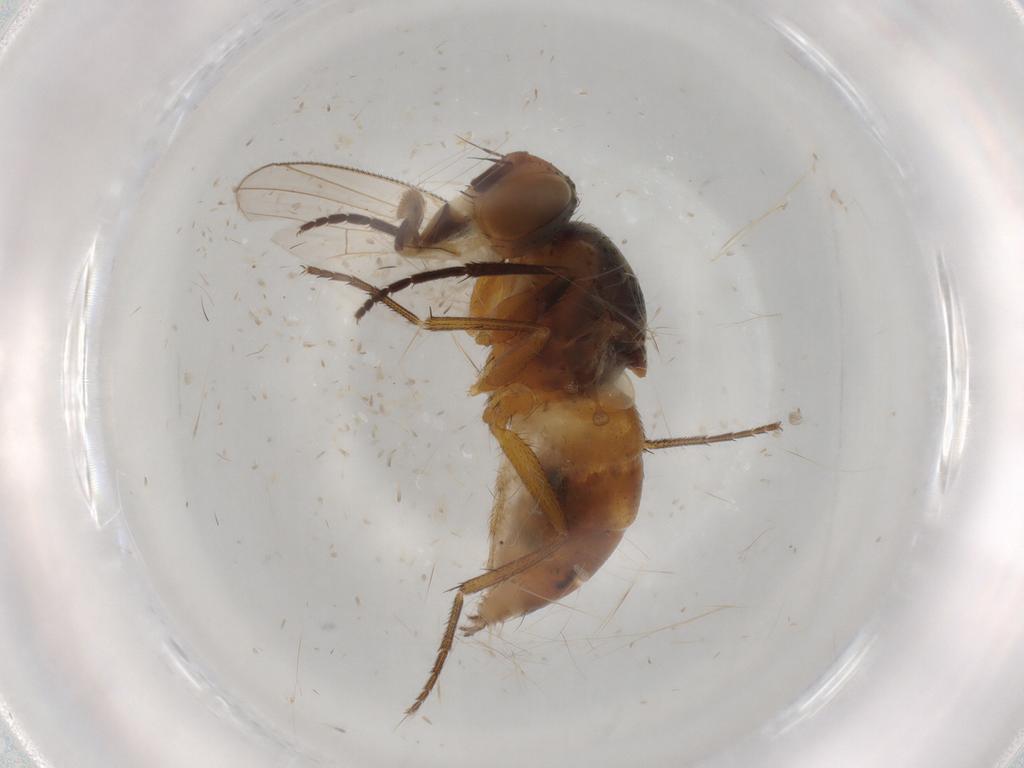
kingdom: Animalia
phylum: Arthropoda
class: Insecta
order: Diptera
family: Muscidae
